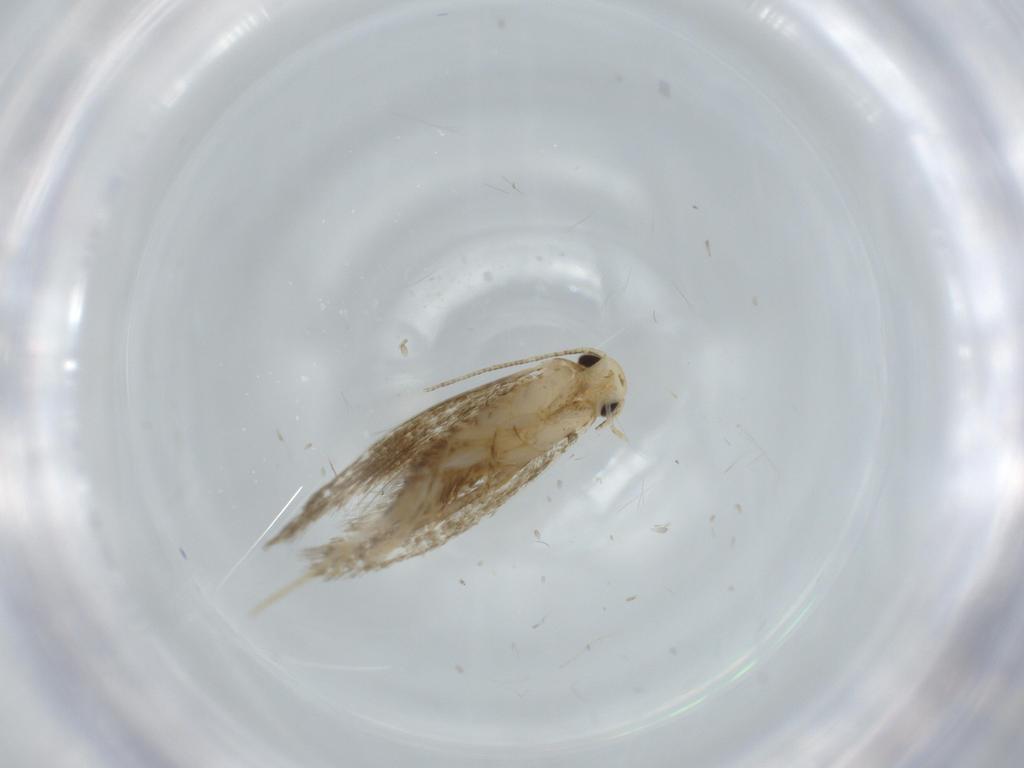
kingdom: Animalia
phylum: Arthropoda
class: Insecta
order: Lepidoptera
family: Tineidae
